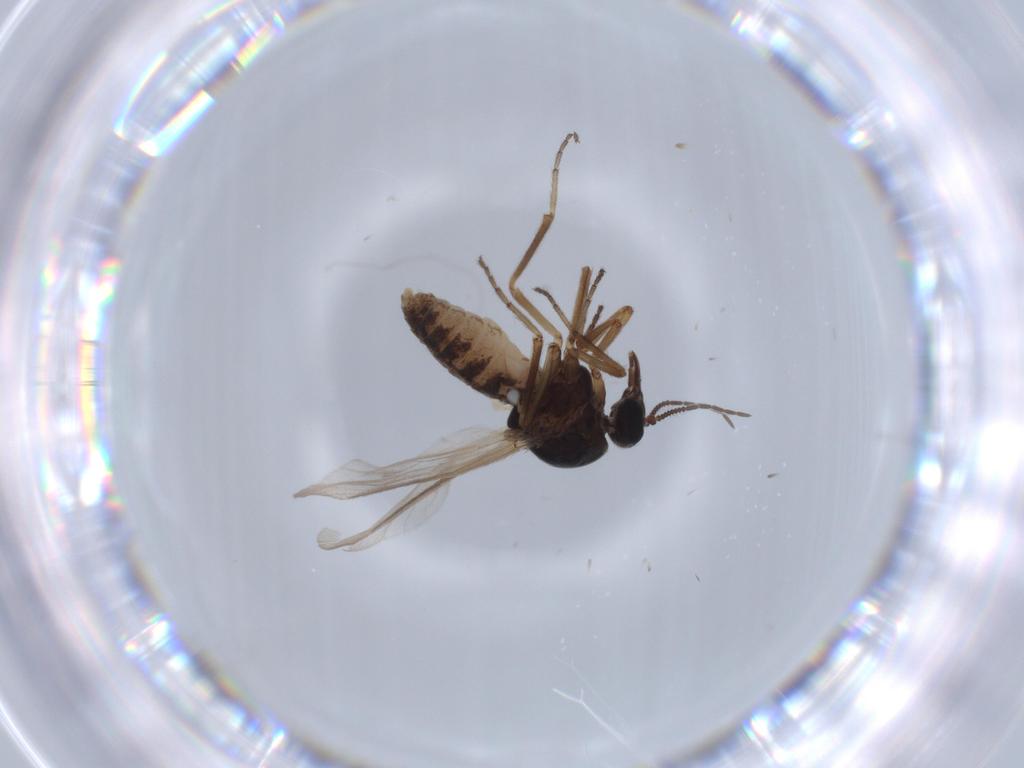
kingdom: Animalia
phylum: Arthropoda
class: Insecta
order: Diptera
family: Ceratopogonidae
